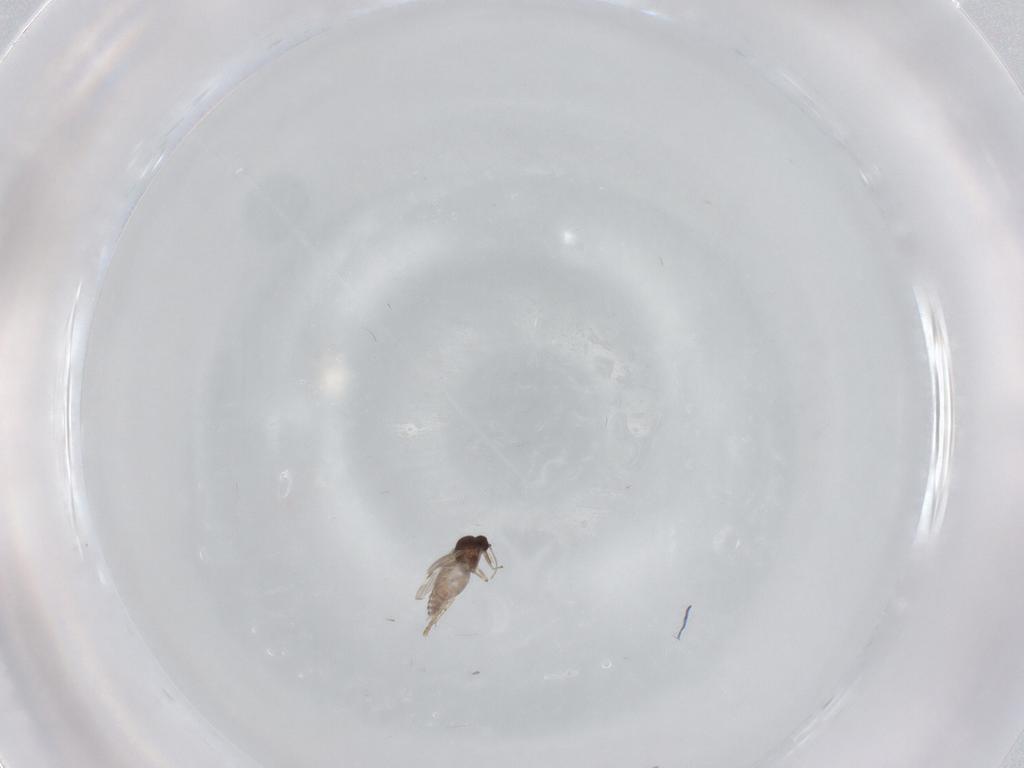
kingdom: Animalia
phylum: Arthropoda
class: Insecta
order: Diptera
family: Cecidomyiidae
